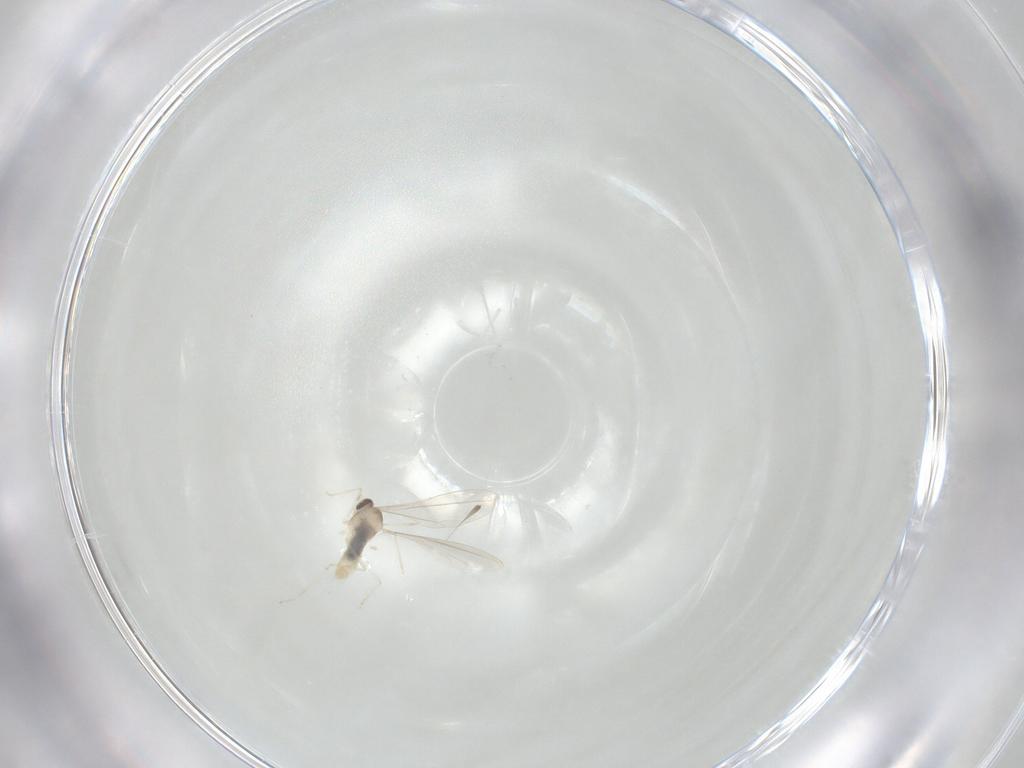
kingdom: Animalia
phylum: Arthropoda
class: Insecta
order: Diptera
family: Cecidomyiidae
